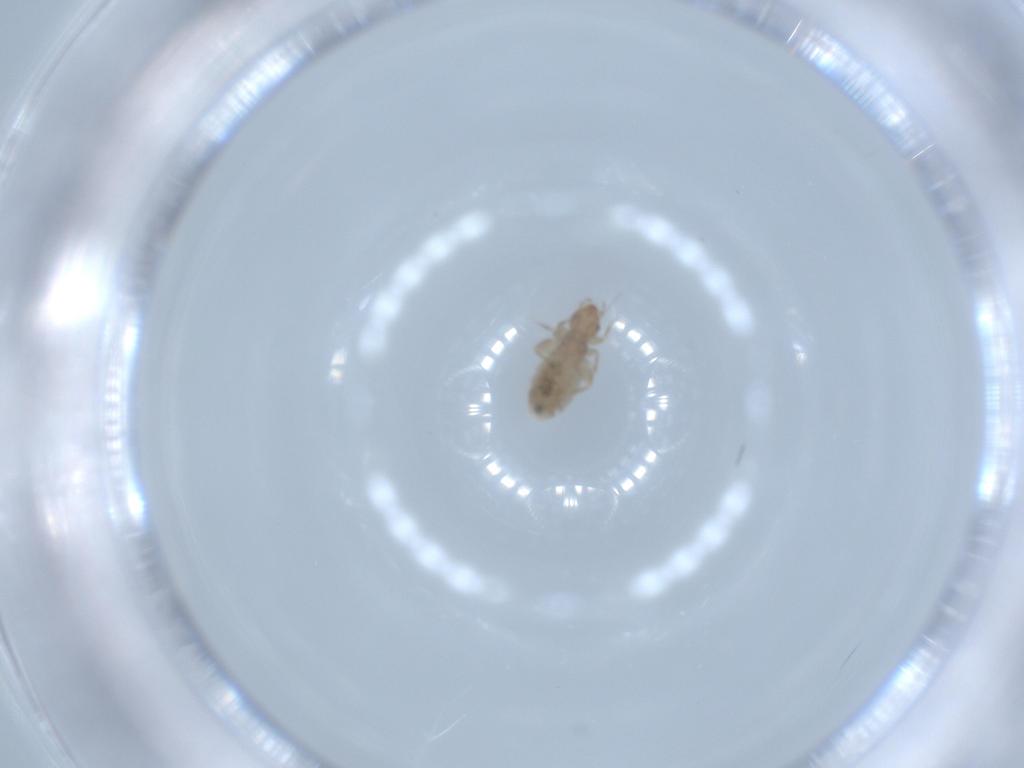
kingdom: Animalia
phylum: Arthropoda
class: Insecta
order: Psocodea
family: Liposcelididae
